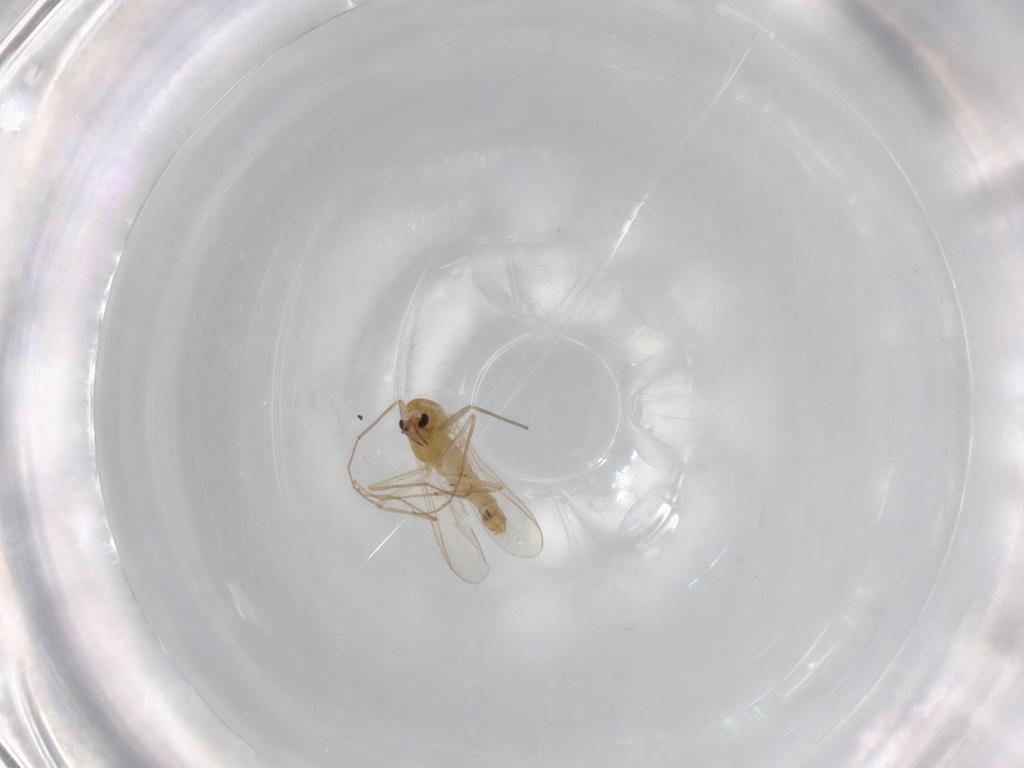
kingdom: Animalia
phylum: Arthropoda
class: Insecta
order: Diptera
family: Chironomidae
